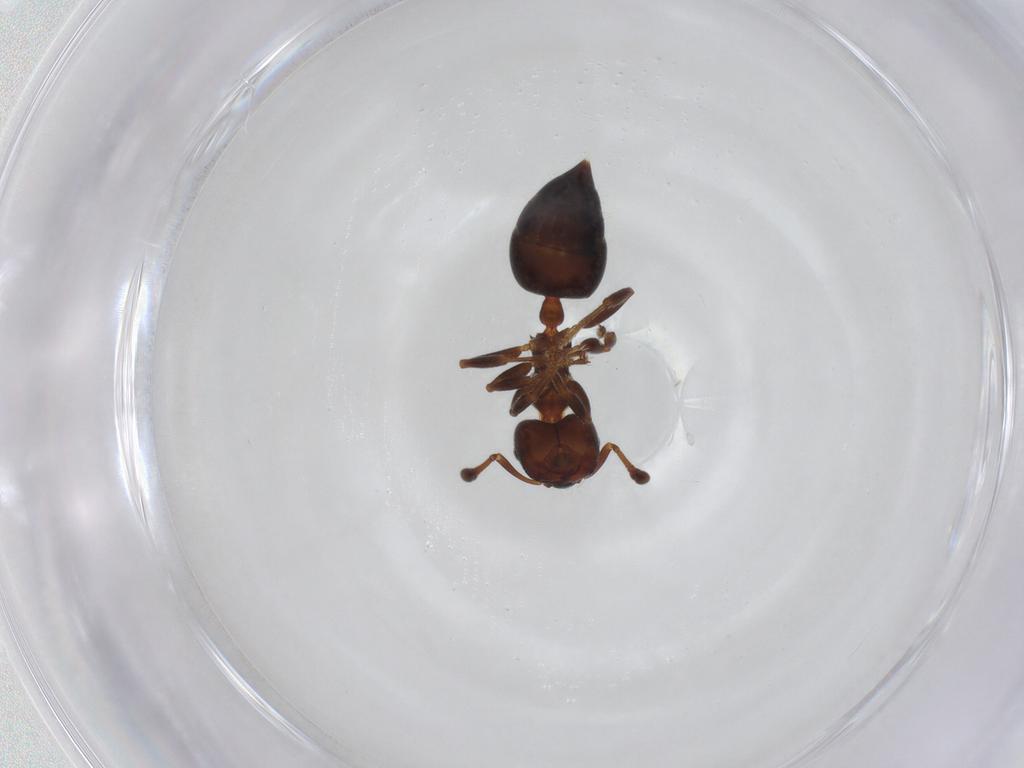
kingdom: Animalia
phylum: Arthropoda
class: Insecta
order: Hymenoptera
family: Formicidae
